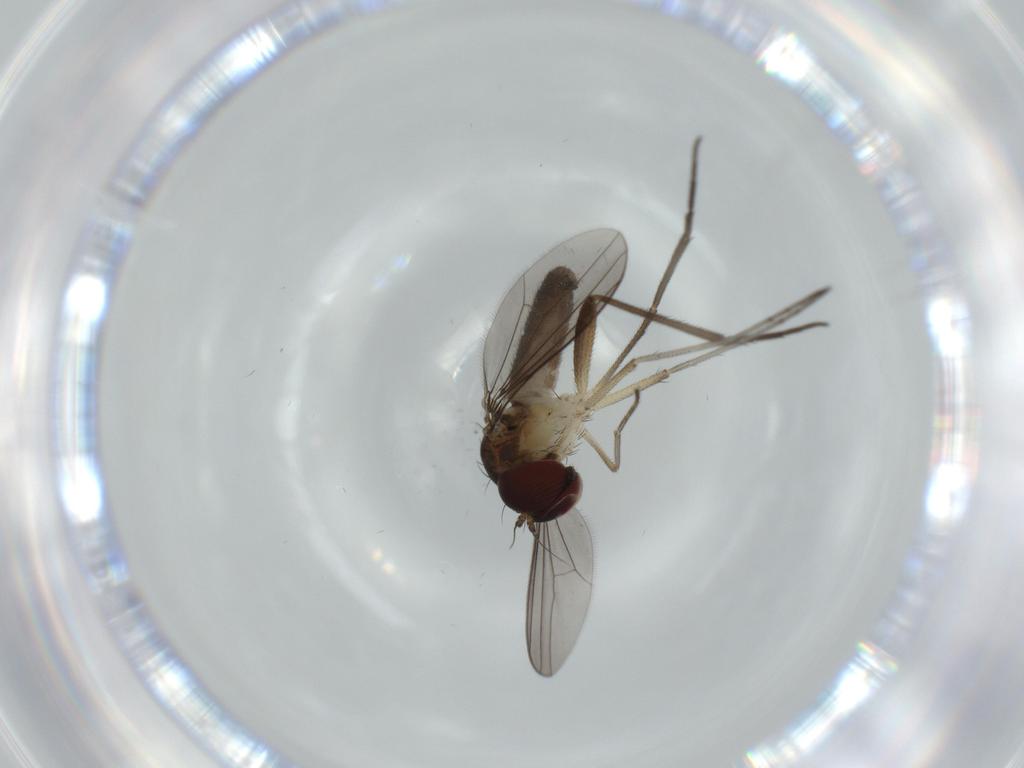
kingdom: Animalia
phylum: Arthropoda
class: Insecta
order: Diptera
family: Dolichopodidae
